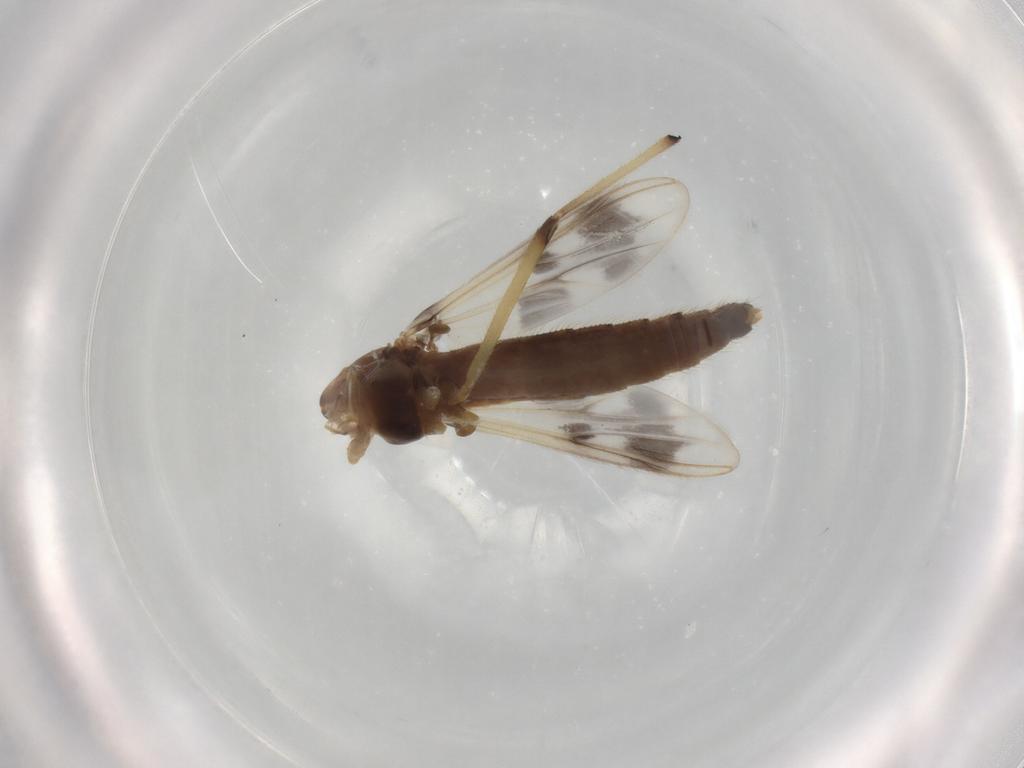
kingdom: Animalia
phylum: Arthropoda
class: Insecta
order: Diptera
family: Chironomidae
